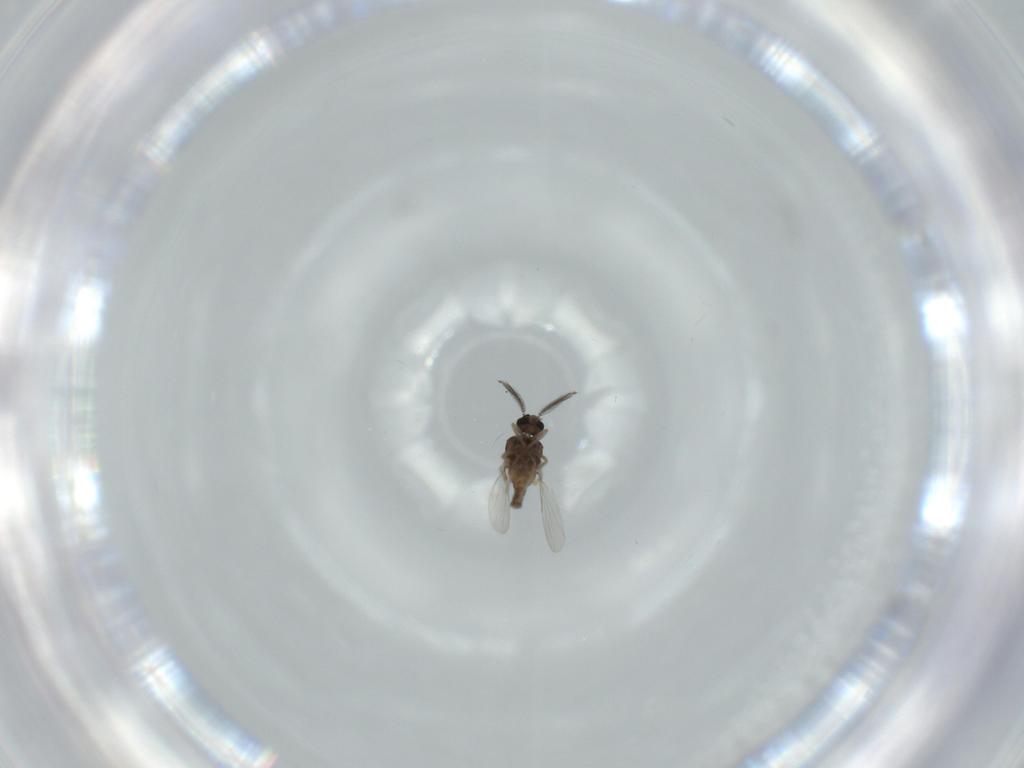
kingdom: Animalia
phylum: Arthropoda
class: Insecta
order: Diptera
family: Ceratopogonidae
